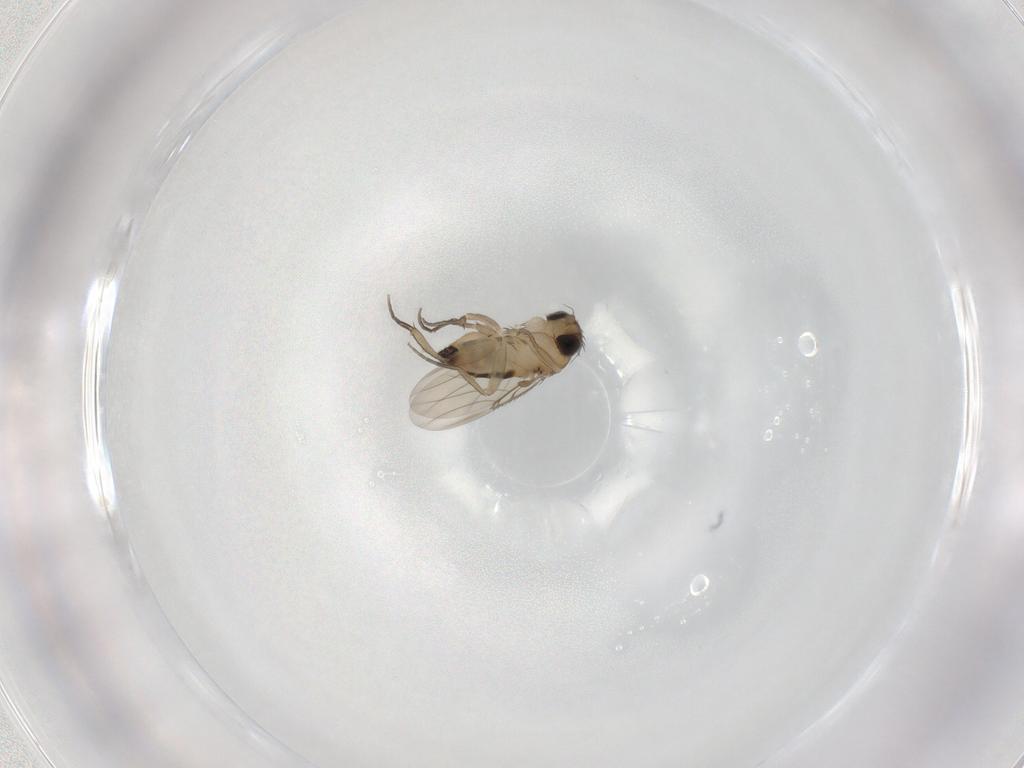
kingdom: Animalia
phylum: Arthropoda
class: Insecta
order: Diptera
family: Phoridae
